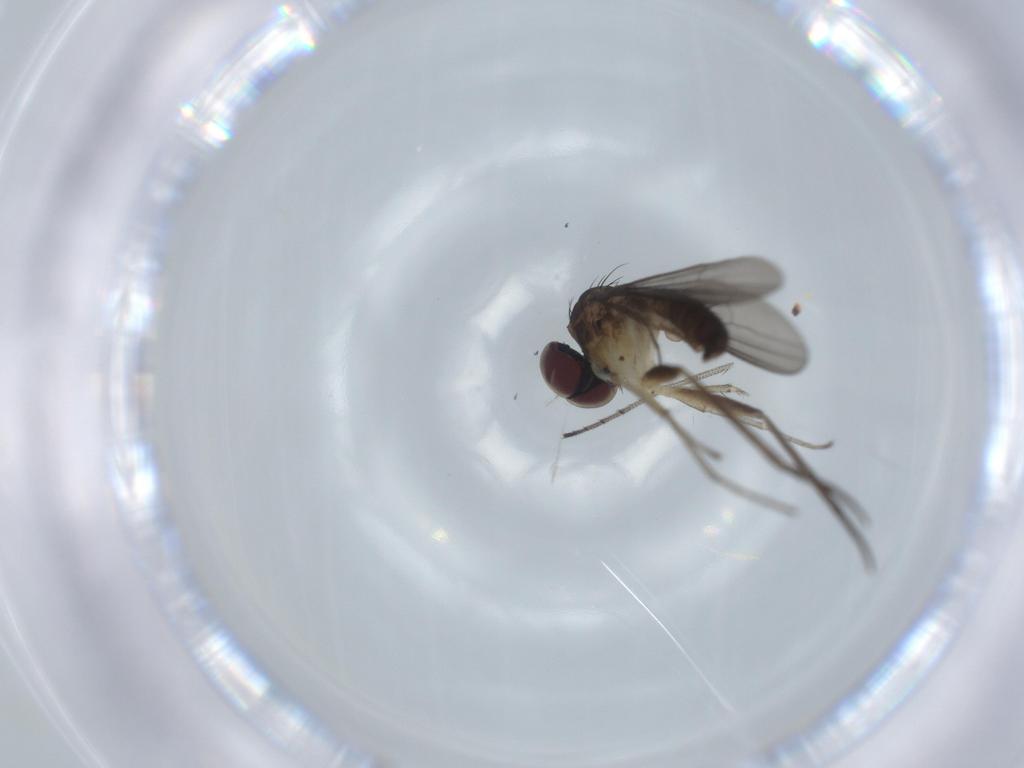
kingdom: Animalia
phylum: Arthropoda
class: Insecta
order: Diptera
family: Dolichopodidae
